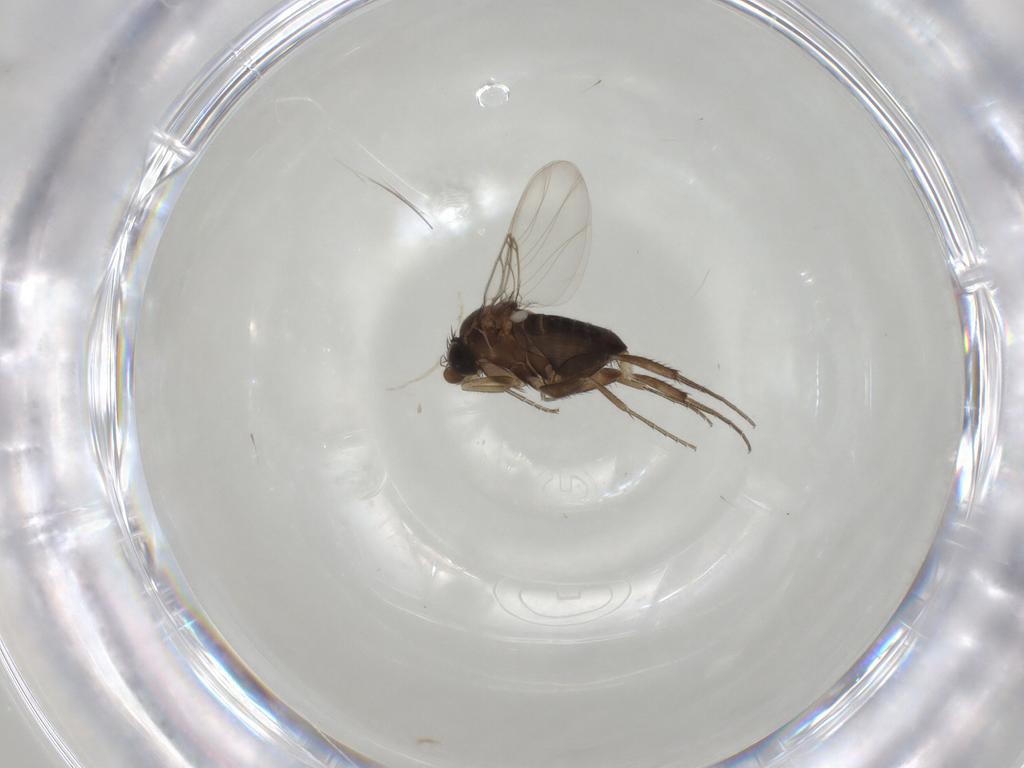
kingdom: Animalia
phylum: Arthropoda
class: Insecta
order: Diptera
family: Phoridae
